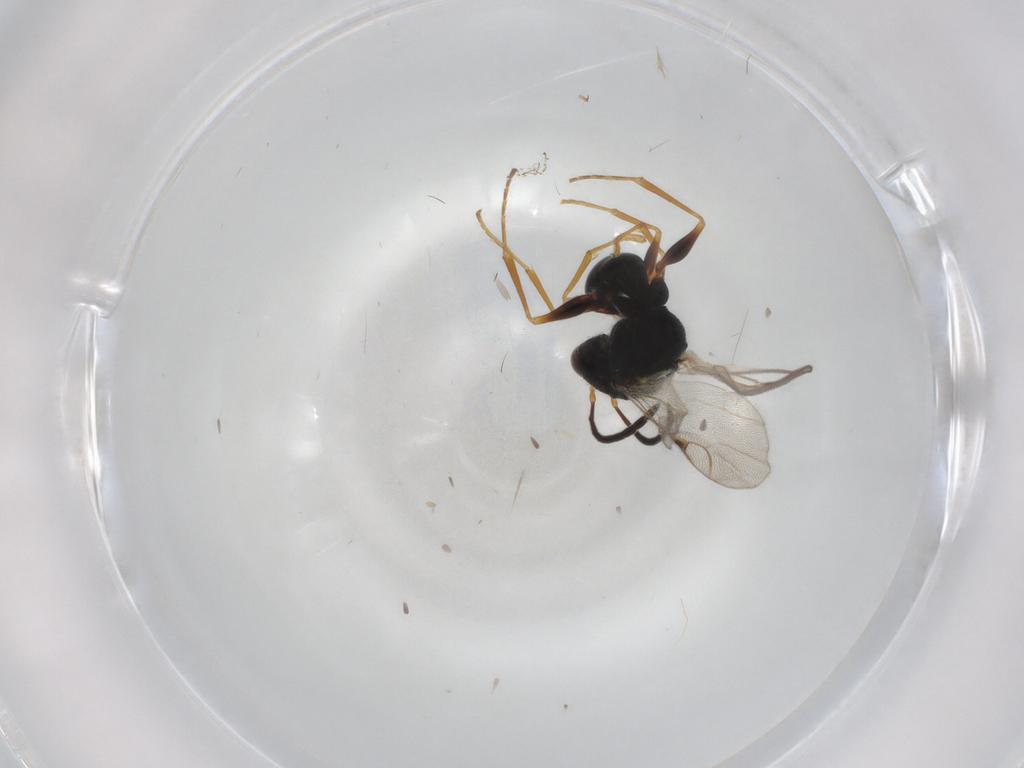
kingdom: Animalia
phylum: Arthropoda
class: Insecta
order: Hymenoptera
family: Dryinidae
